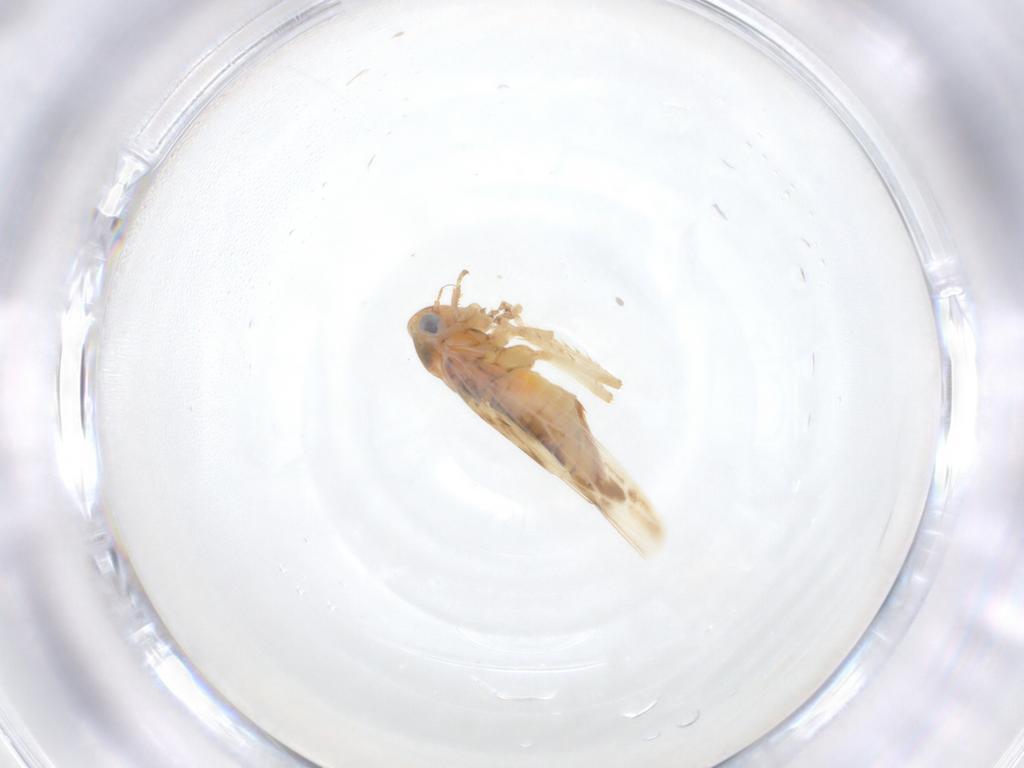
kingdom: Animalia
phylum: Arthropoda
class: Insecta
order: Hemiptera
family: Cicadellidae
